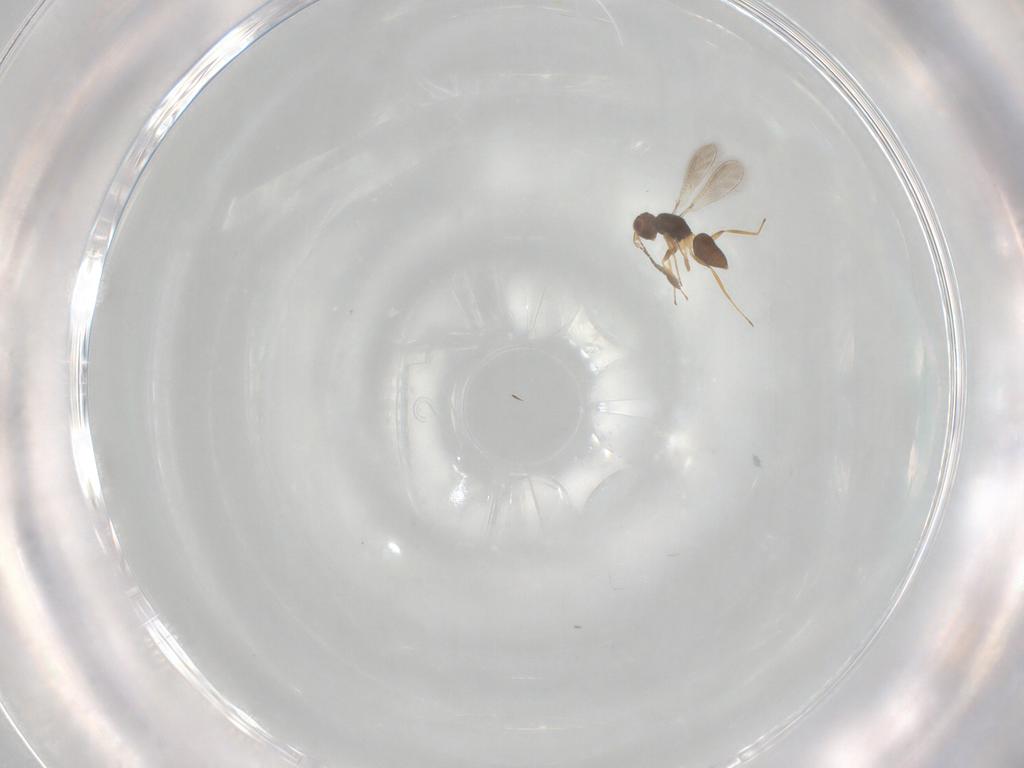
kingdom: Animalia
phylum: Arthropoda
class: Insecta
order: Hymenoptera
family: Mymaridae
